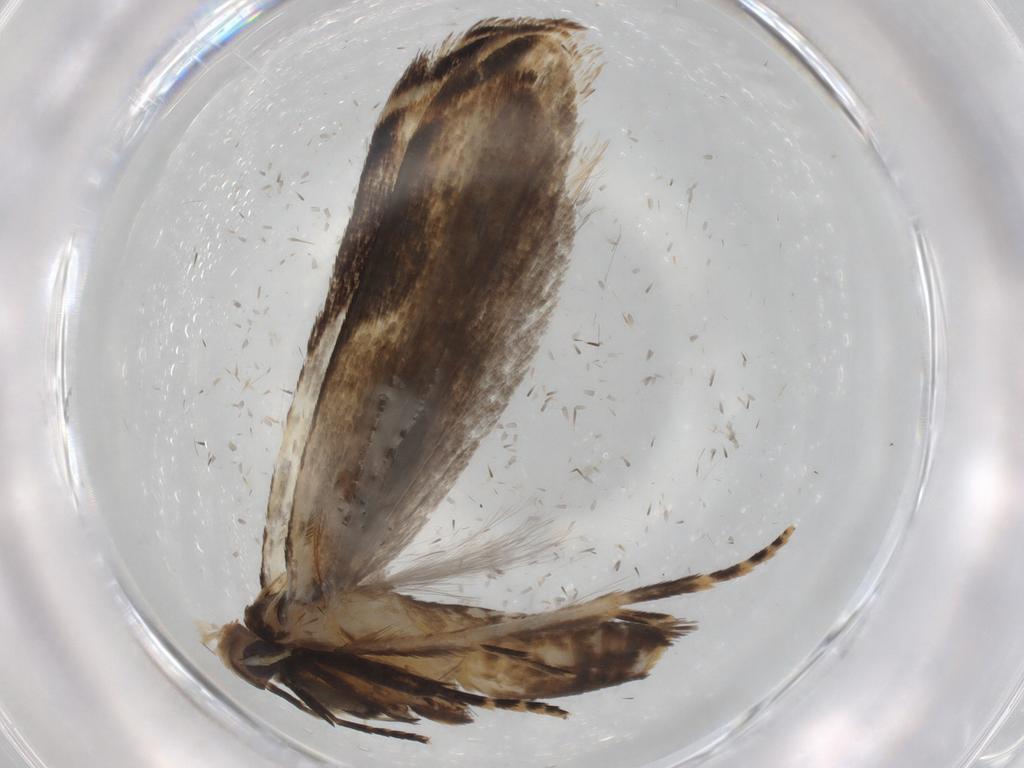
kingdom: Animalia
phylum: Arthropoda
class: Insecta
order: Lepidoptera
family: Gelechiidae
